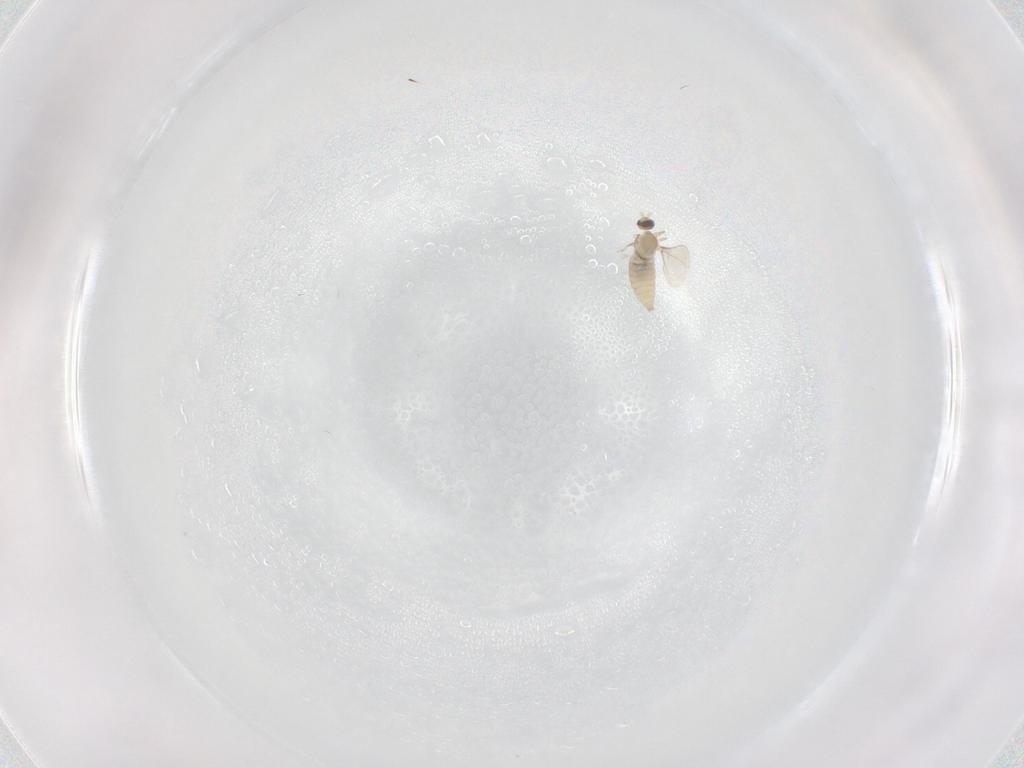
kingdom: Animalia
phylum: Arthropoda
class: Insecta
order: Diptera
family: Cecidomyiidae
